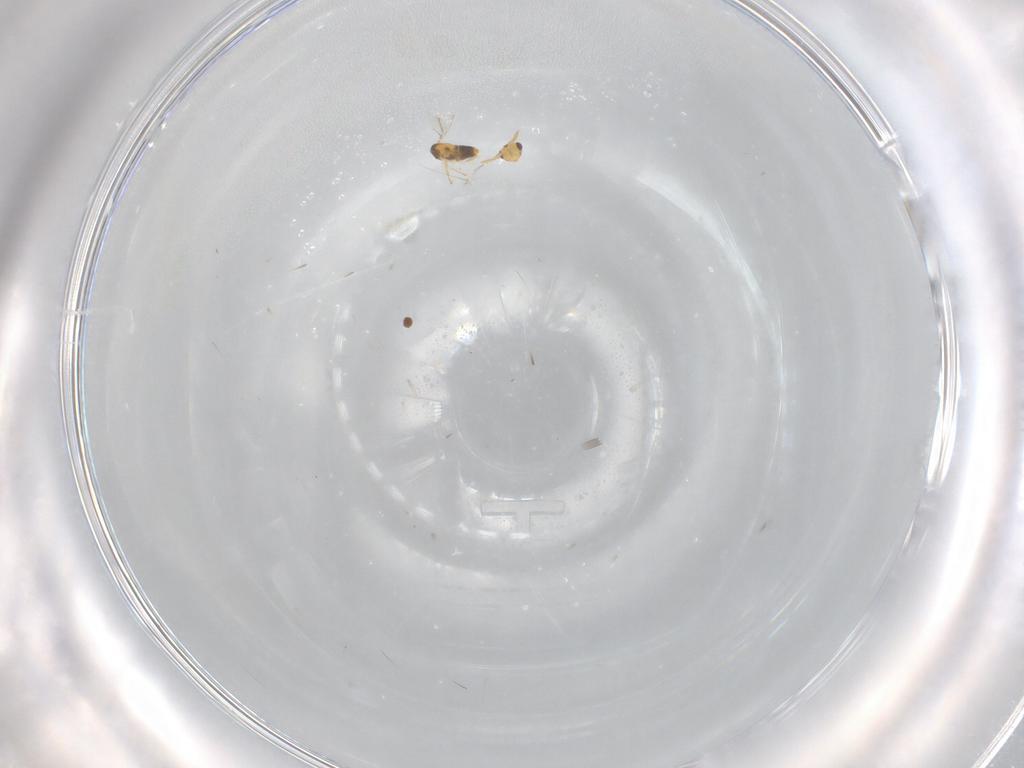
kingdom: Animalia
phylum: Arthropoda
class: Insecta
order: Hymenoptera
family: Aphelinidae
